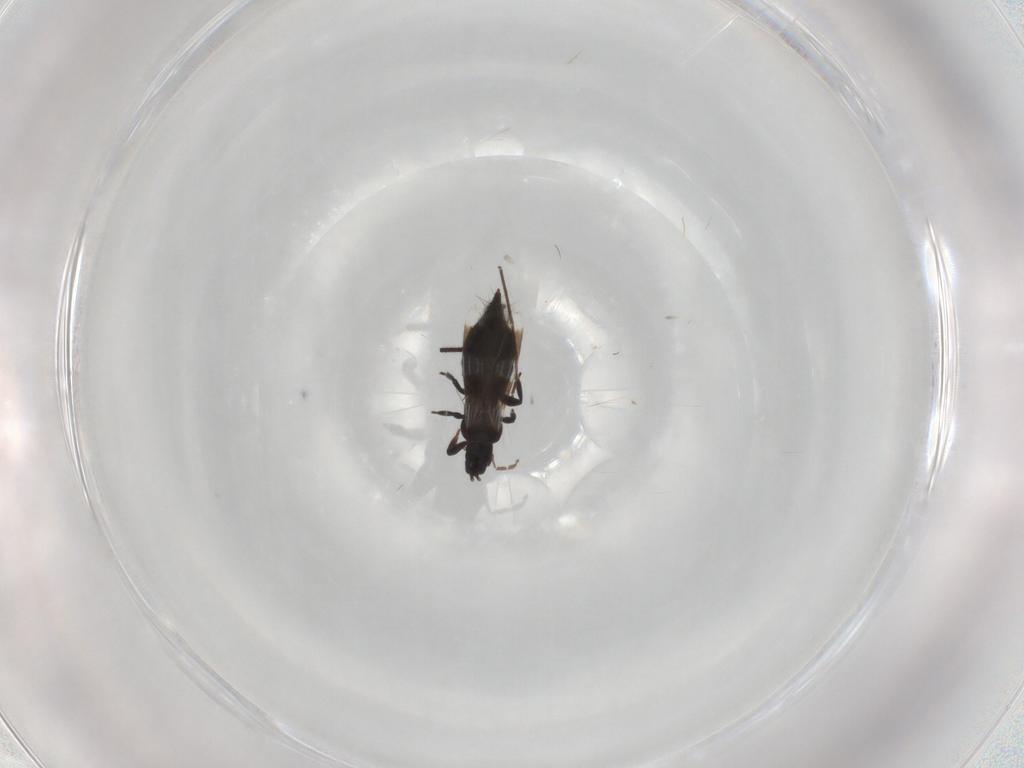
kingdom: Animalia
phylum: Arthropoda
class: Insecta
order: Thysanoptera
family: Aeolothripidae
